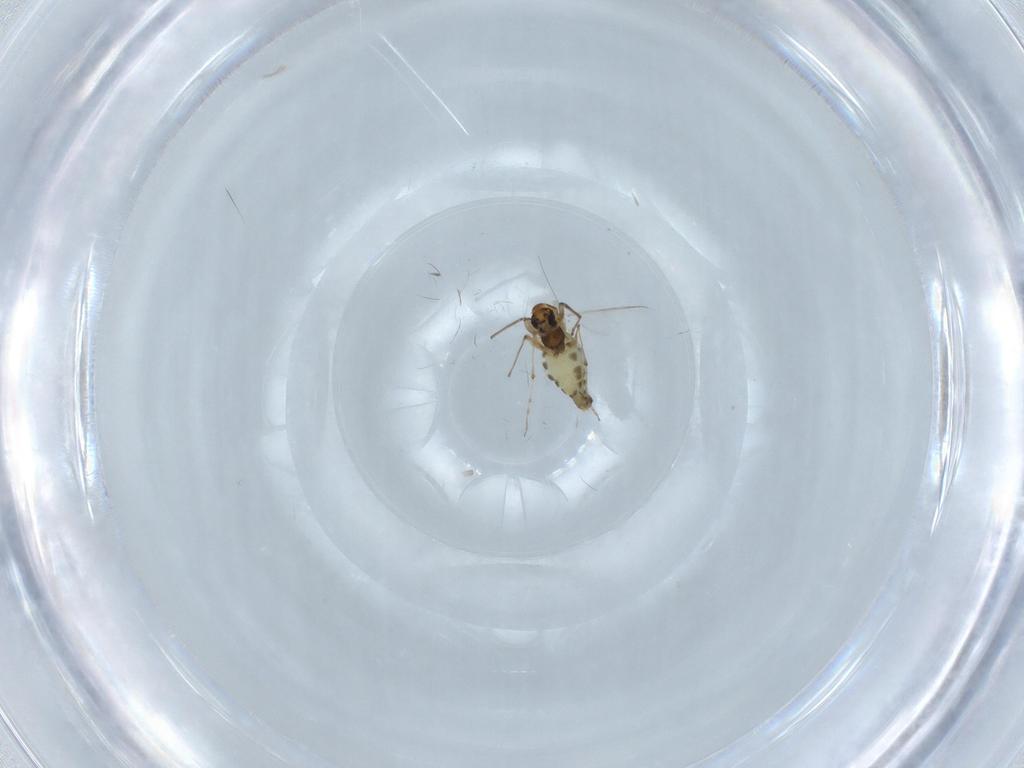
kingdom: Animalia
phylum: Arthropoda
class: Insecta
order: Diptera
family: Chironomidae
